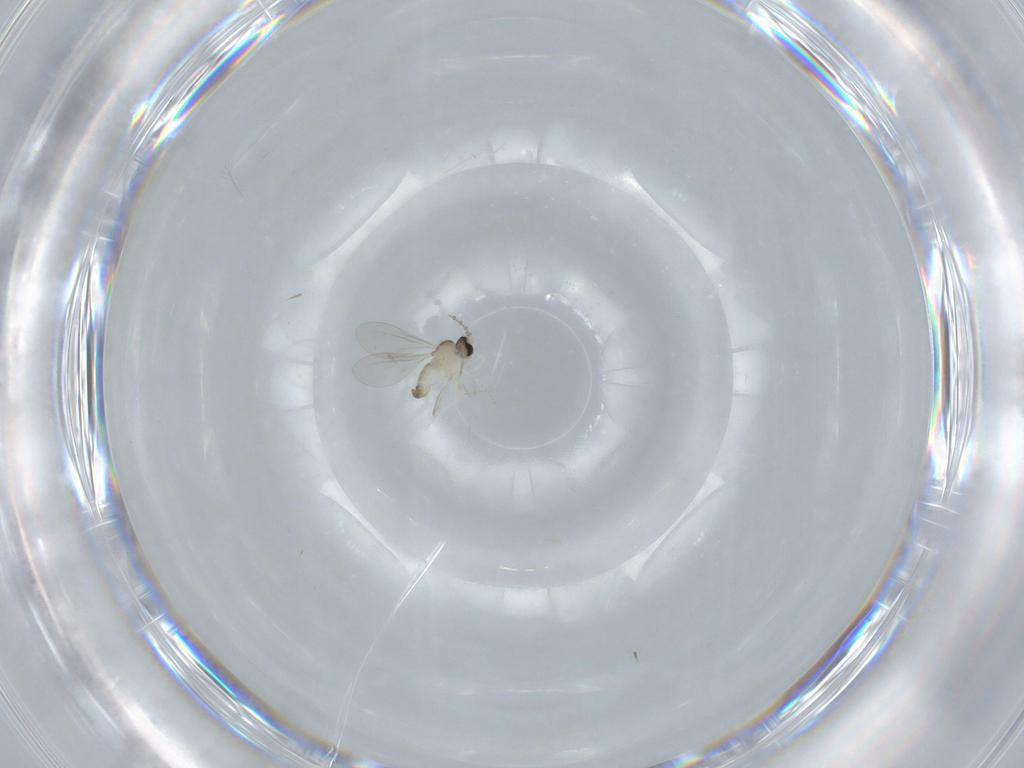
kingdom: Animalia
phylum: Arthropoda
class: Insecta
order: Diptera
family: Cecidomyiidae
